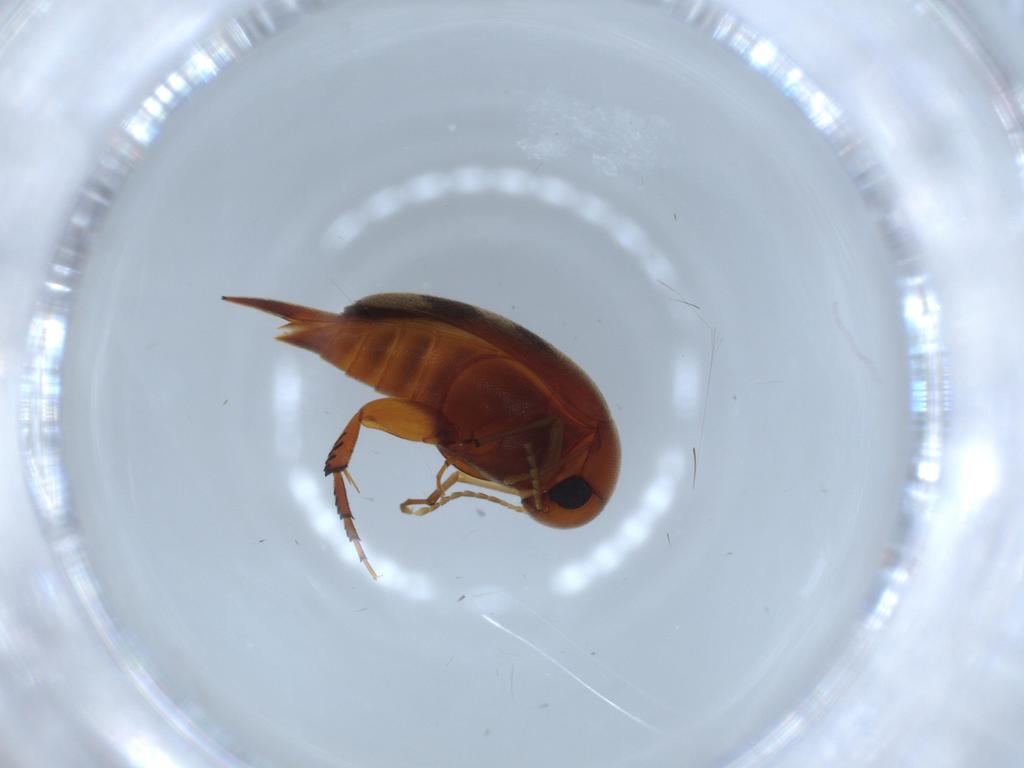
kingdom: Animalia
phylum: Arthropoda
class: Insecta
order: Coleoptera
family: Mordellidae
